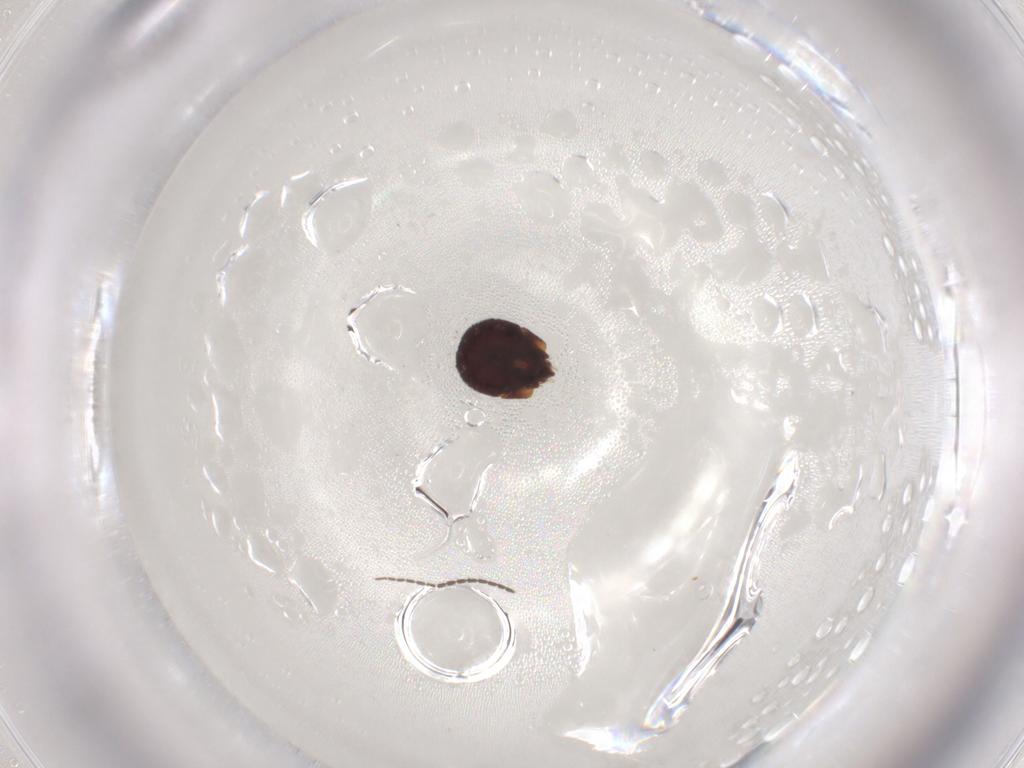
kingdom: Animalia
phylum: Arthropoda
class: Arachnida
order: Sarcoptiformes
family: Phenopelopidae
